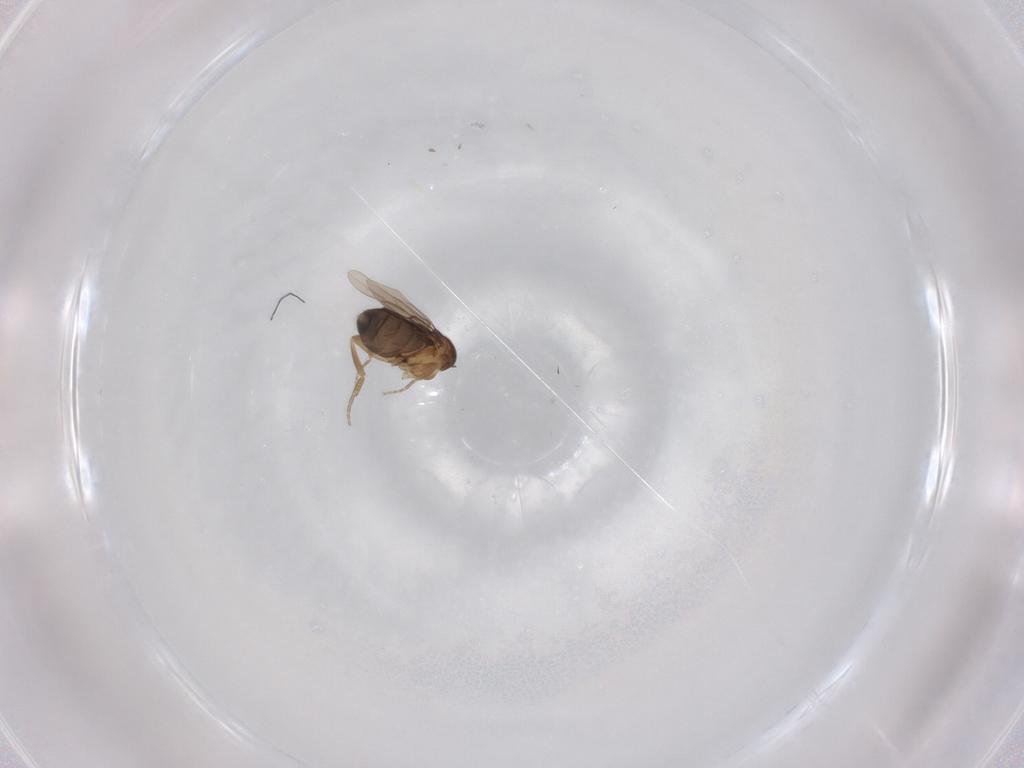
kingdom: Animalia
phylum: Arthropoda
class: Insecta
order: Diptera
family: Phoridae
